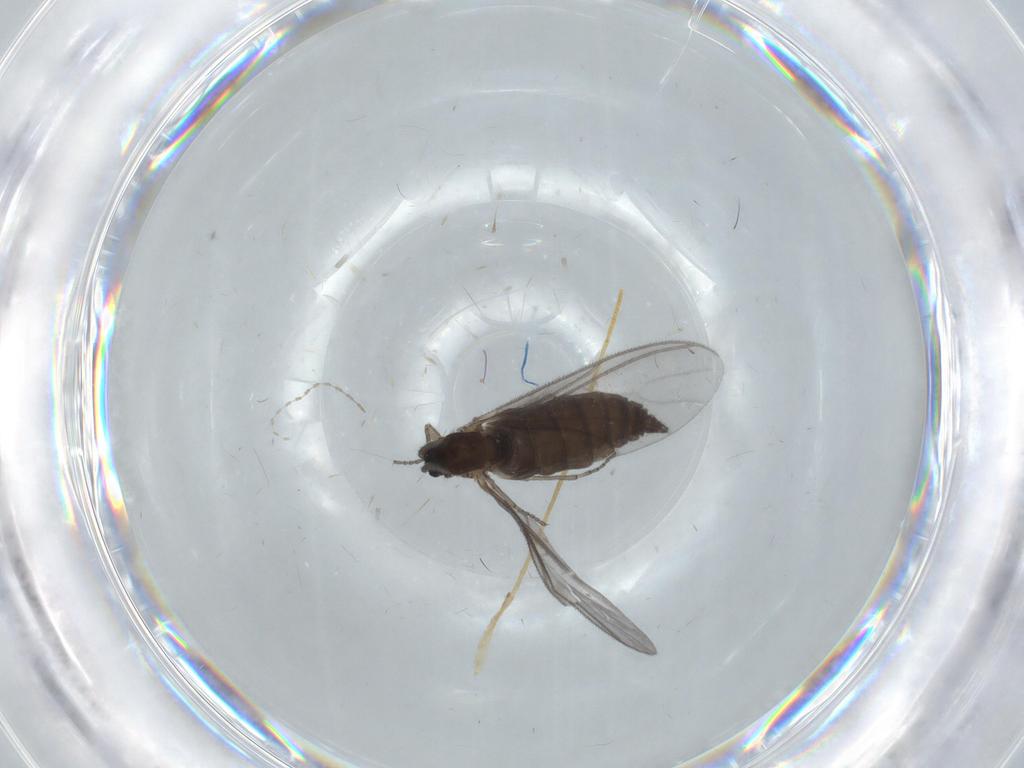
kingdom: Animalia
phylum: Arthropoda
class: Insecta
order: Diptera
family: Sciaridae
